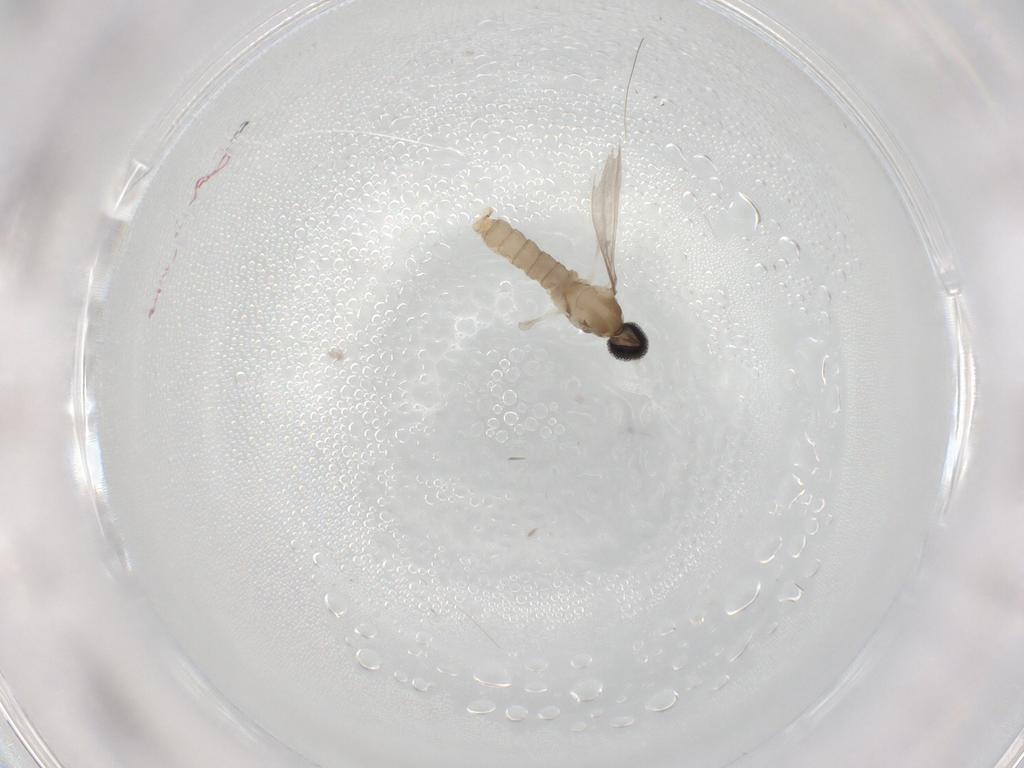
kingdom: Animalia
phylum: Arthropoda
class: Insecta
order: Diptera
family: Cecidomyiidae
